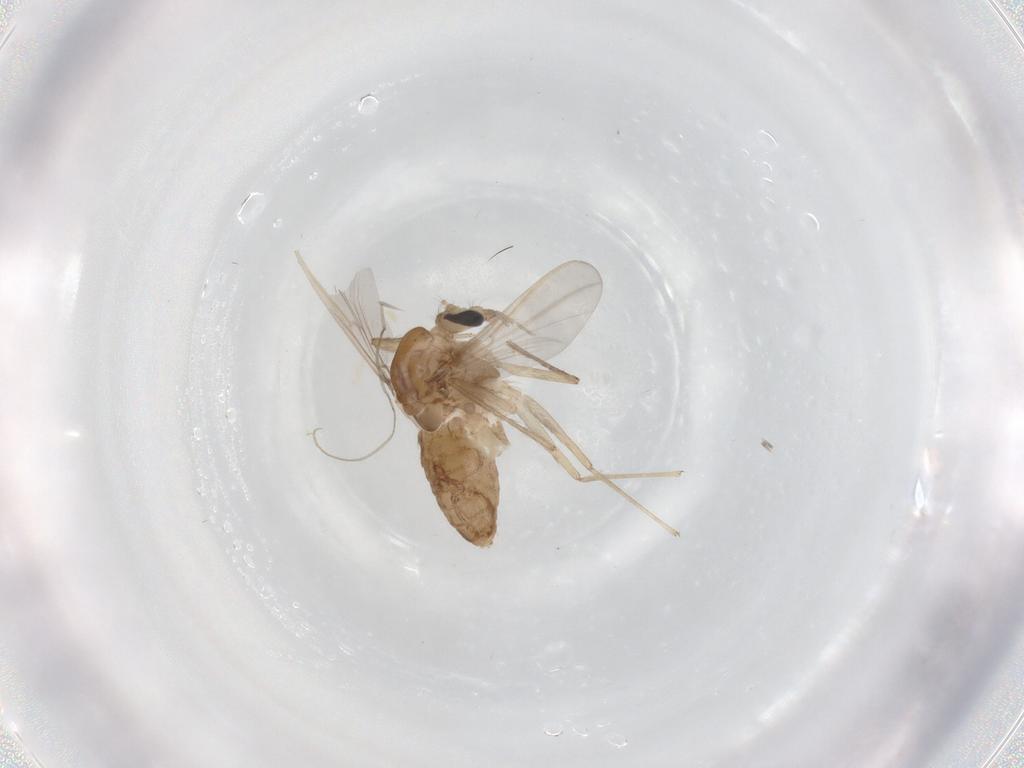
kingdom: Animalia
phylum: Arthropoda
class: Insecta
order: Diptera
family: Chironomidae
